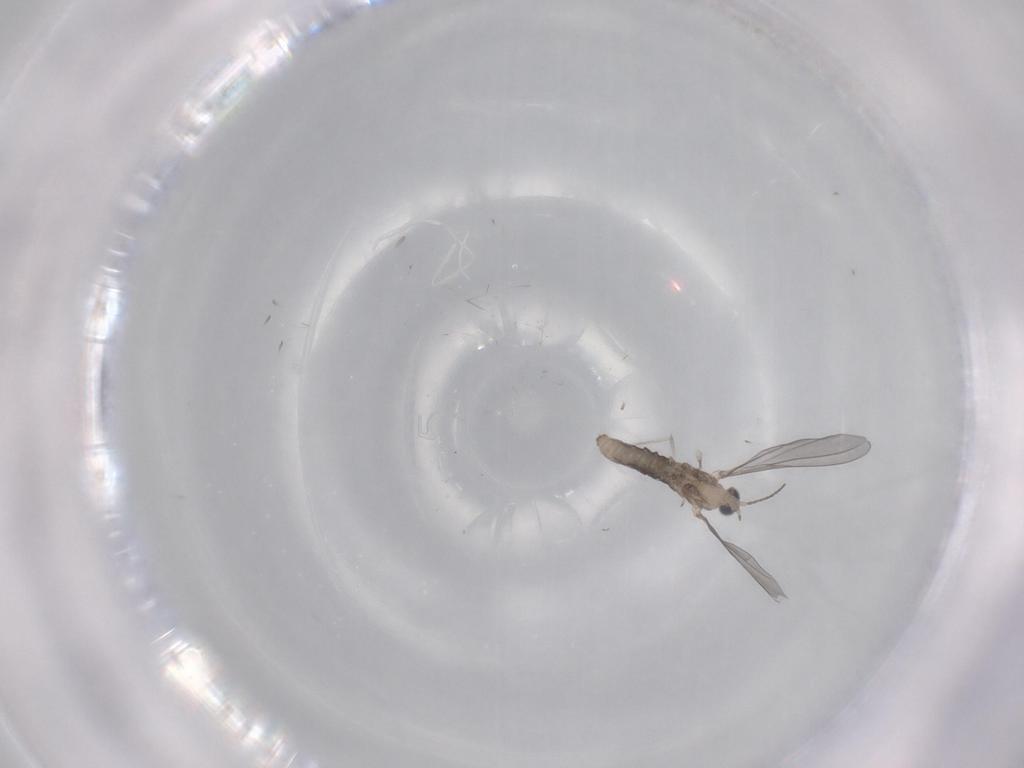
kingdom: Animalia
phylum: Arthropoda
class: Insecta
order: Diptera
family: Cecidomyiidae
